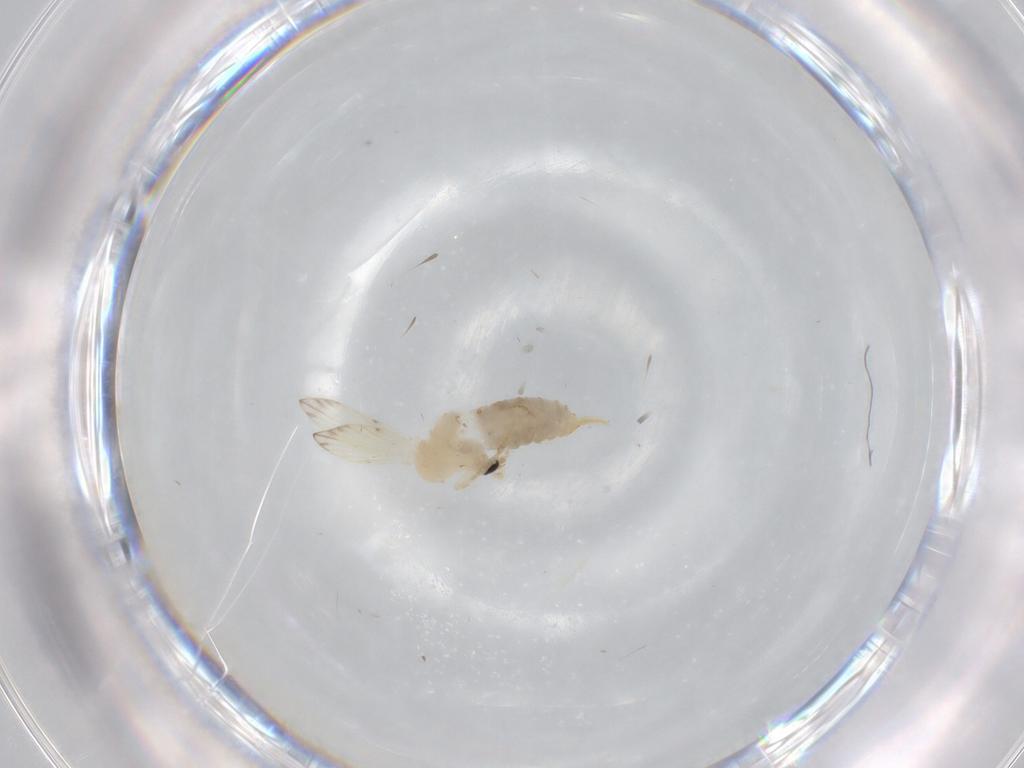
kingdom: Animalia
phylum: Arthropoda
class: Insecta
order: Diptera
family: Psychodidae
